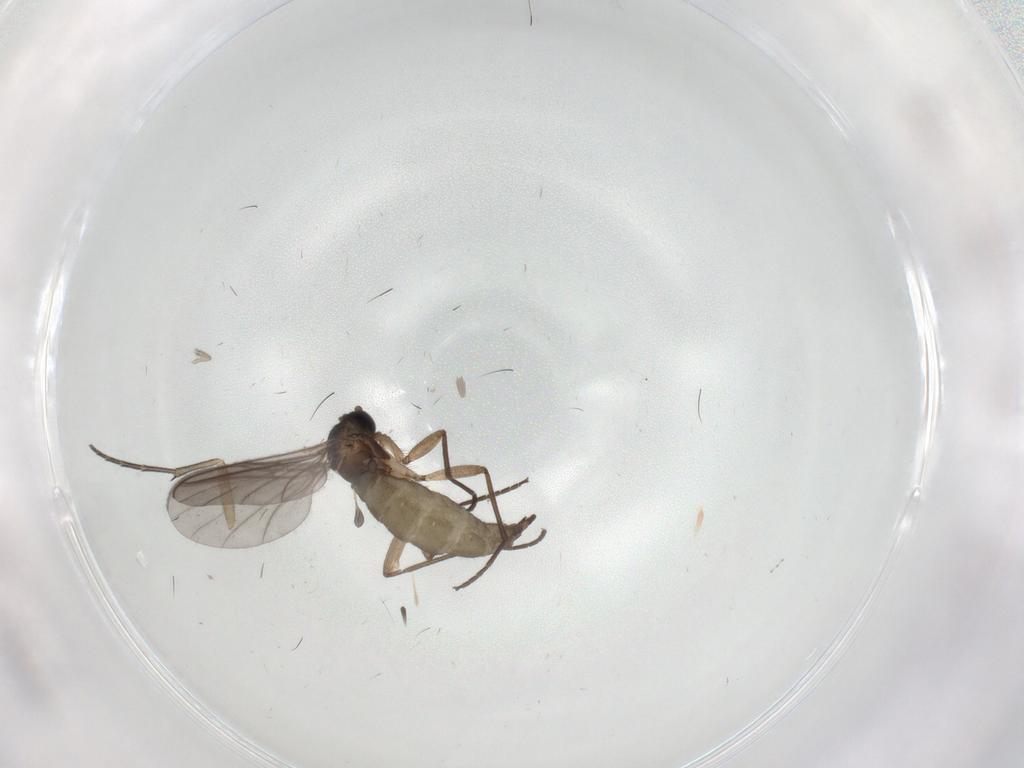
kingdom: Animalia
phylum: Arthropoda
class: Insecta
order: Diptera
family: Sciaridae
